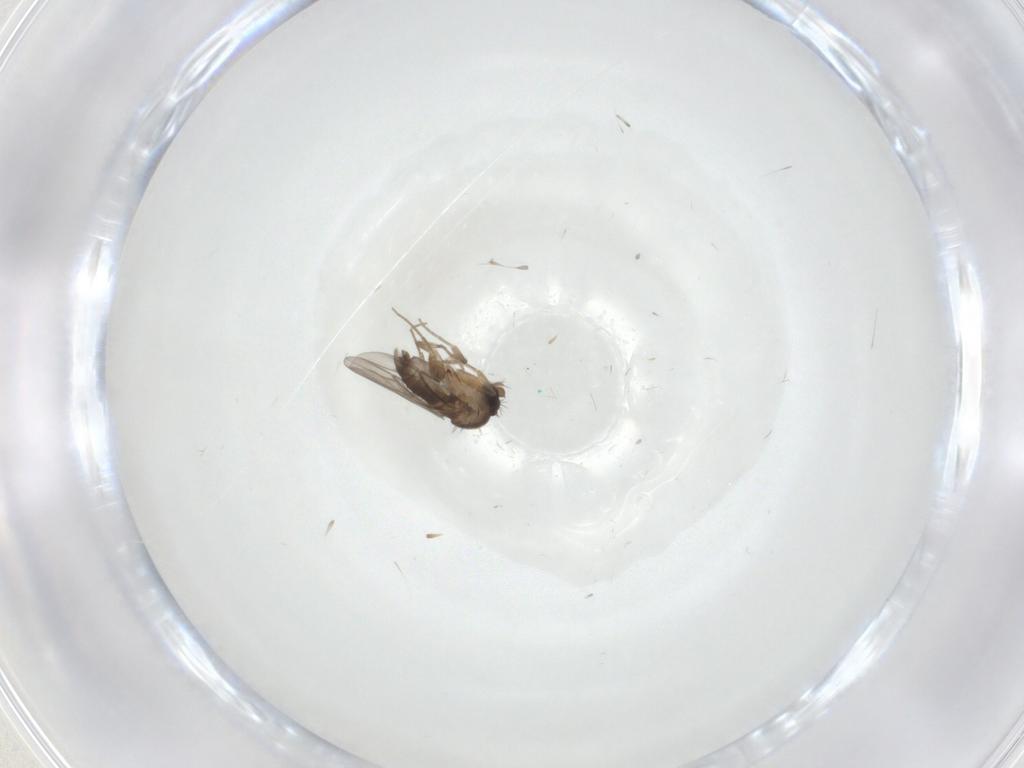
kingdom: Animalia
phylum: Arthropoda
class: Insecta
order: Diptera
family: Phoridae
